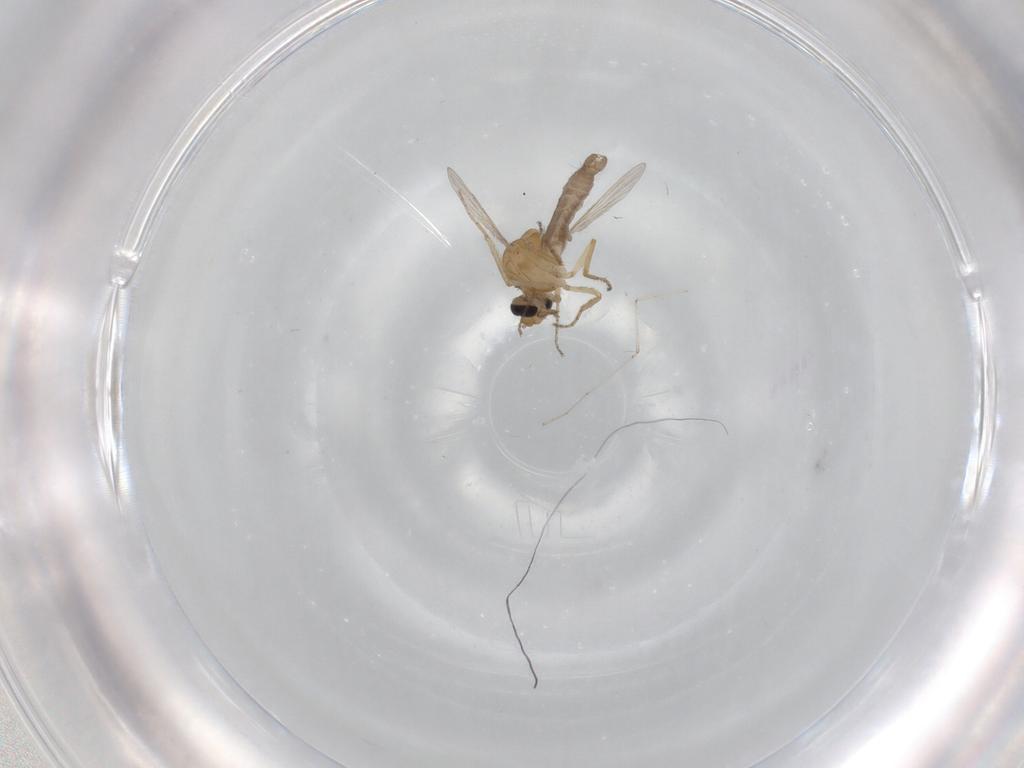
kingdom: Animalia
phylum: Arthropoda
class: Insecta
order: Diptera
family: Ceratopogonidae
